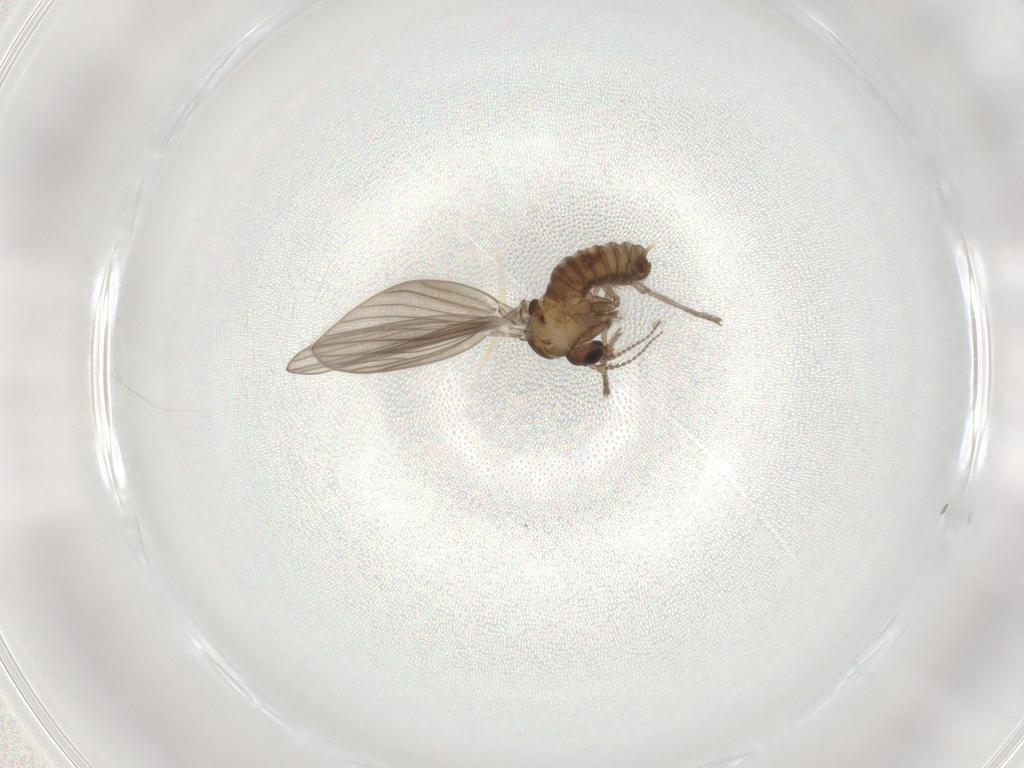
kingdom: Animalia
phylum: Arthropoda
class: Insecta
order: Diptera
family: Psychodidae
